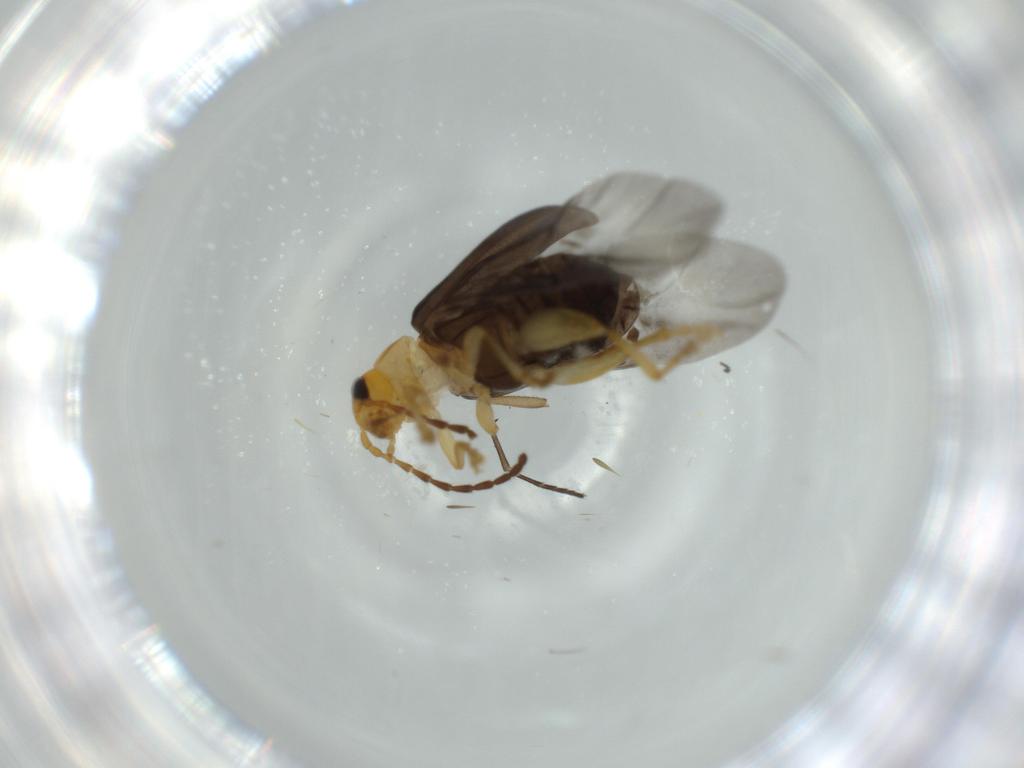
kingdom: Animalia
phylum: Arthropoda
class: Insecta
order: Coleoptera
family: Chrysomelidae
